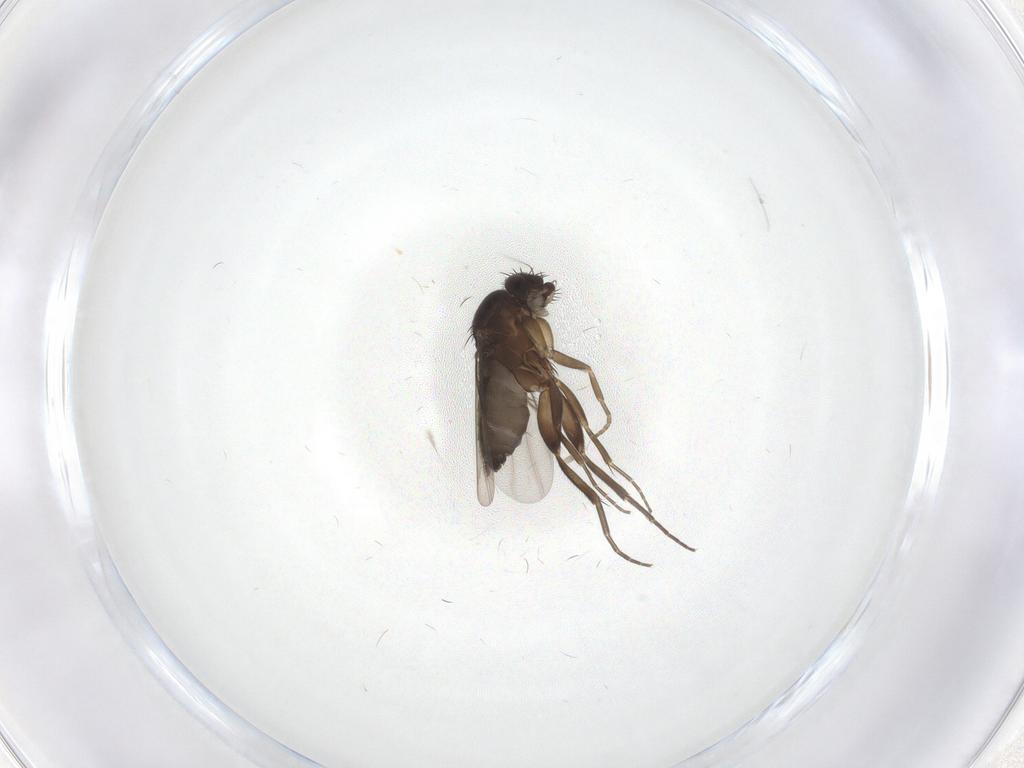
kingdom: Animalia
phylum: Arthropoda
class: Insecta
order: Diptera
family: Phoridae
